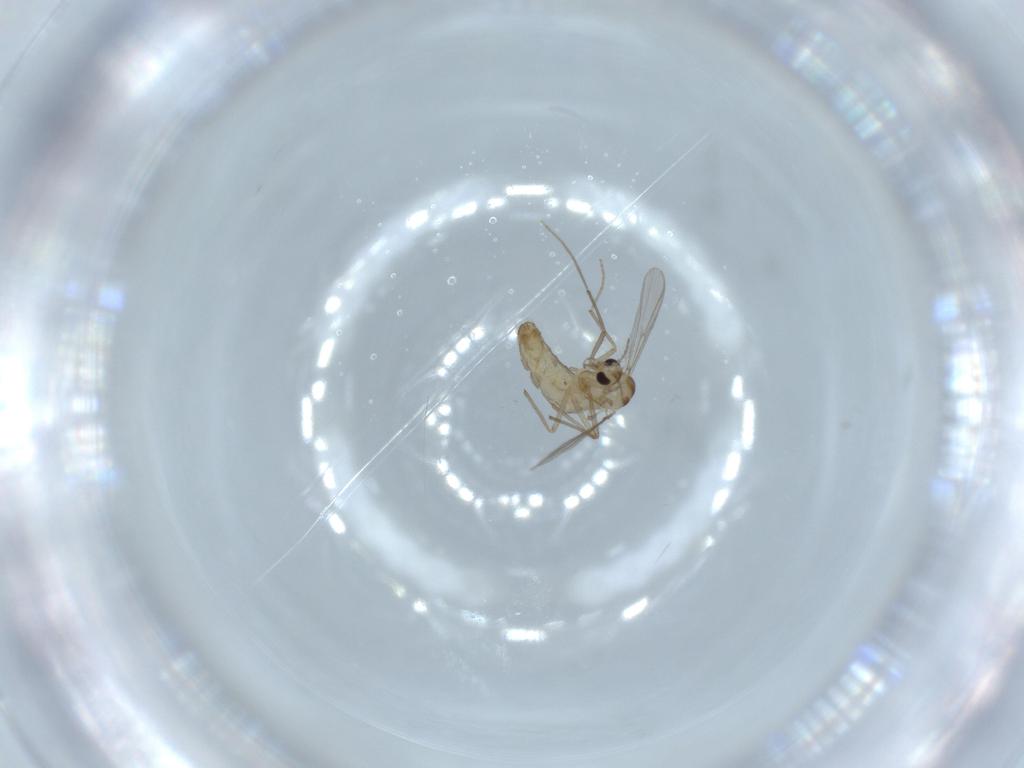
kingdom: Animalia
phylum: Arthropoda
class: Insecta
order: Diptera
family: Chironomidae
